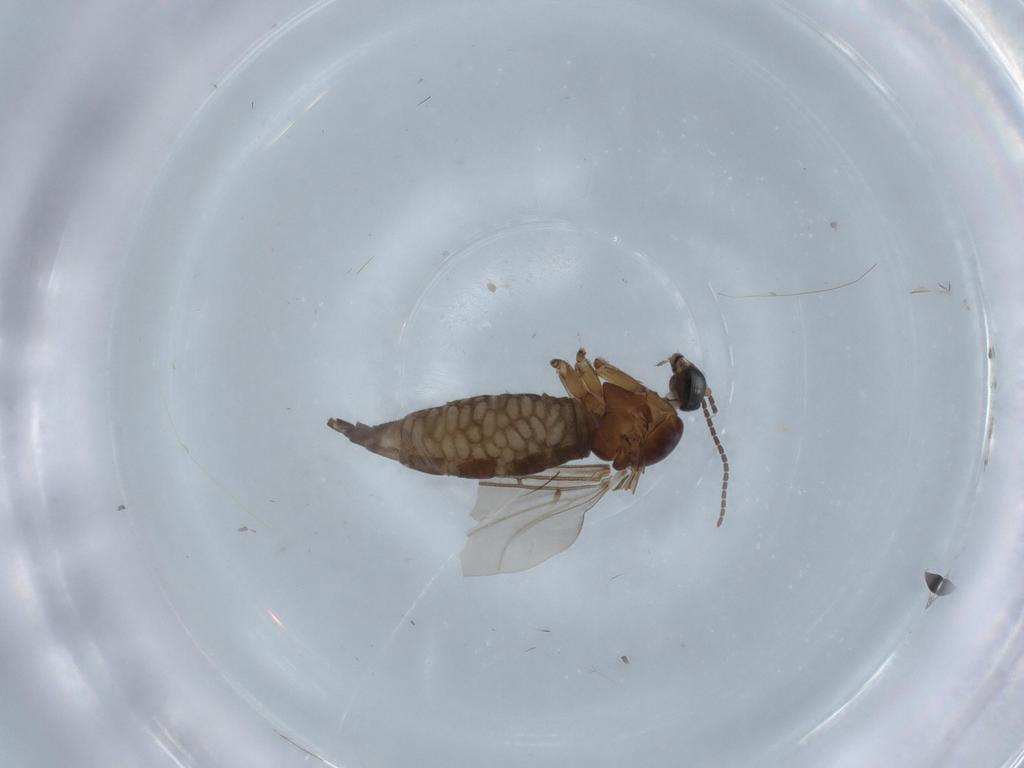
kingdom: Animalia
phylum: Arthropoda
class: Insecta
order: Diptera
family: Sciaridae
